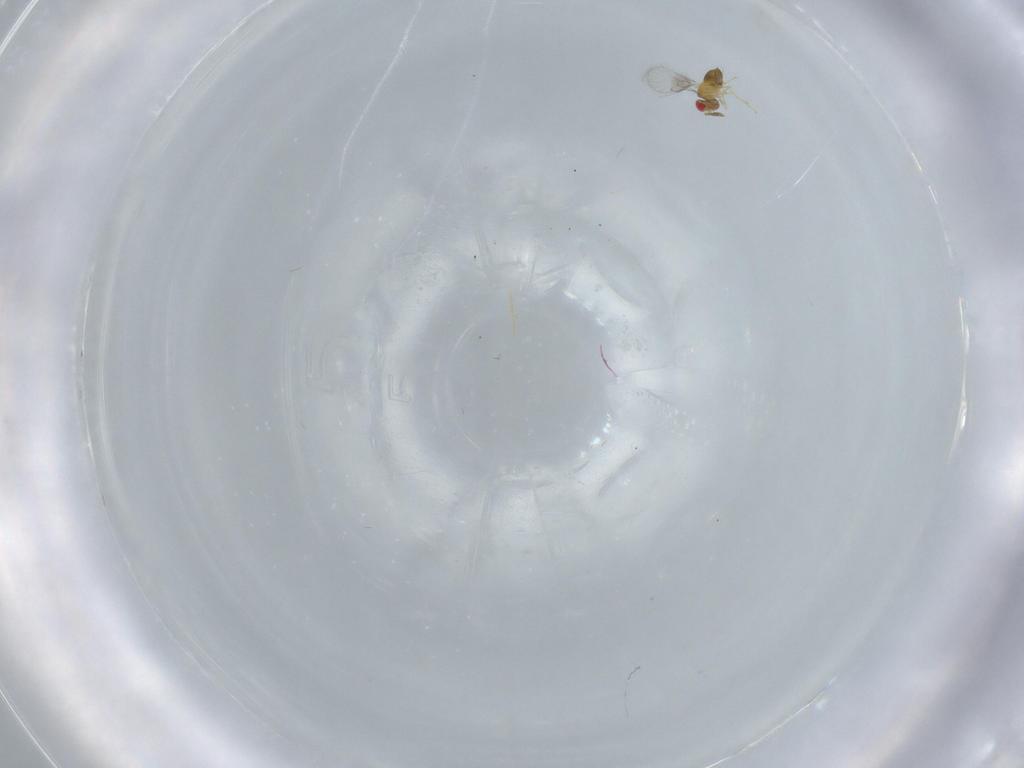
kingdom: Animalia
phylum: Arthropoda
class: Insecta
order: Hymenoptera
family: Trichogrammatidae
